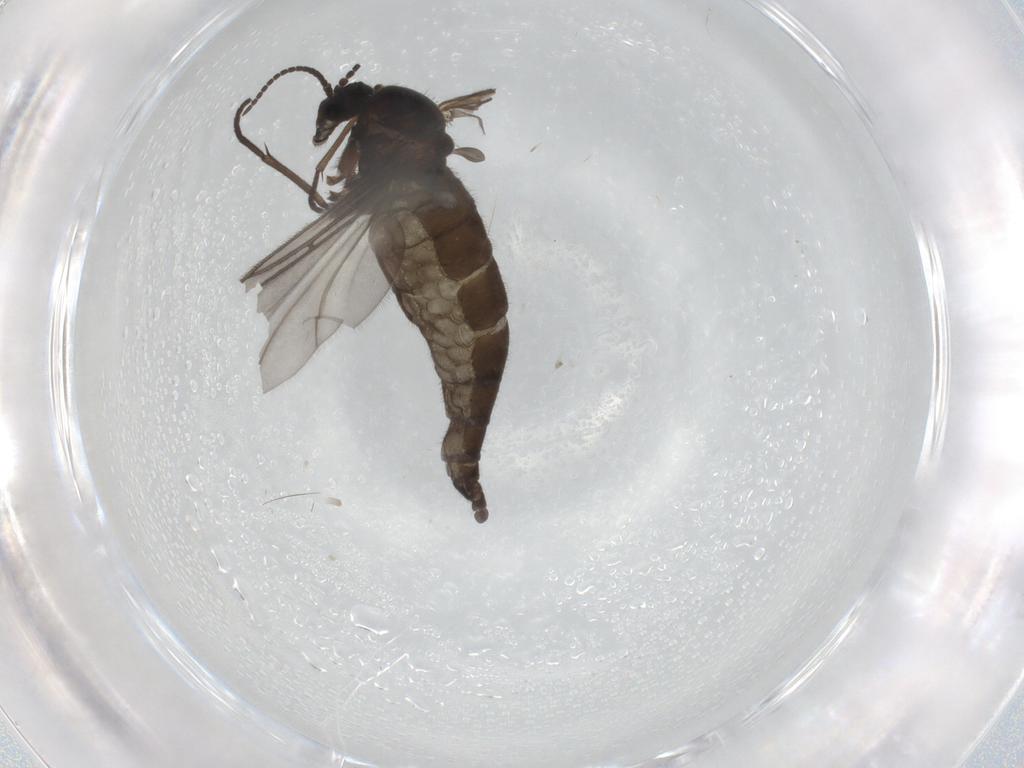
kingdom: Animalia
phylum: Arthropoda
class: Insecta
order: Diptera
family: Sciaridae
